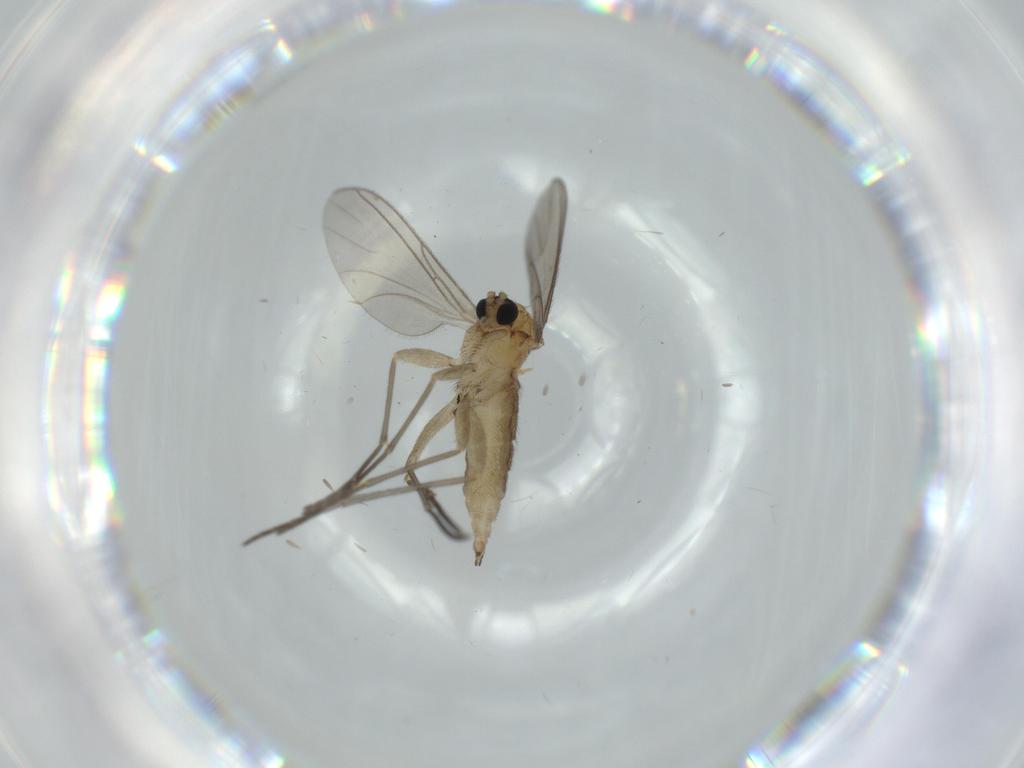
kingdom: Animalia
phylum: Arthropoda
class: Insecta
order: Diptera
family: Sciaridae
